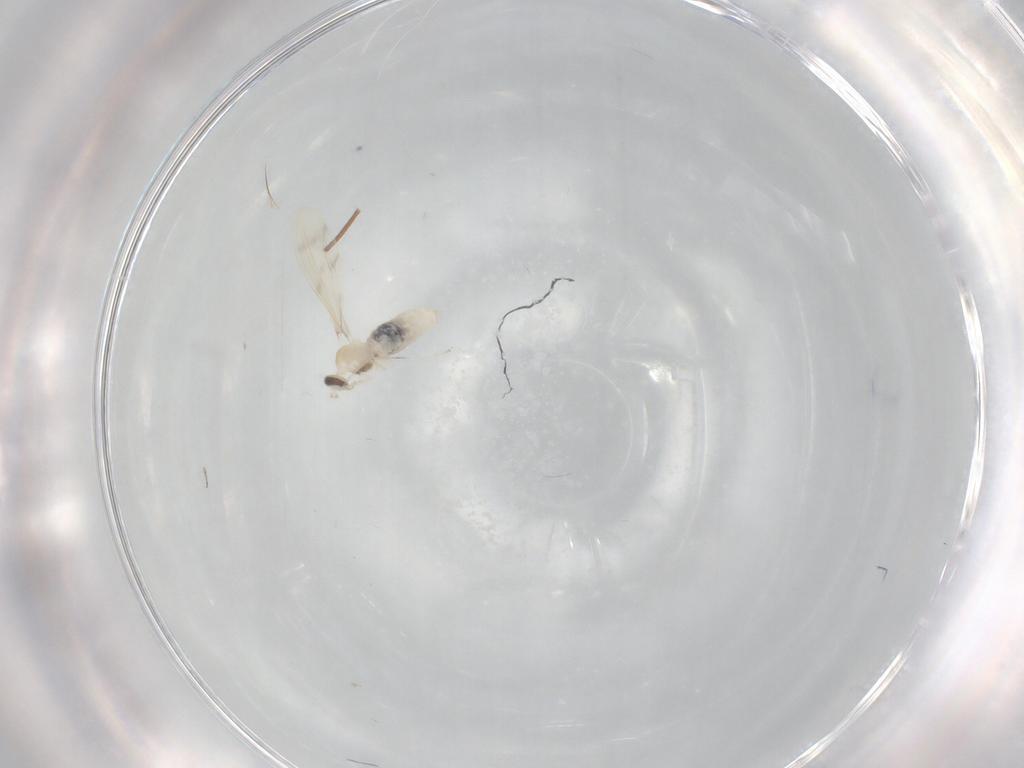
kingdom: Animalia
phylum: Arthropoda
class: Insecta
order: Diptera
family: Cecidomyiidae
